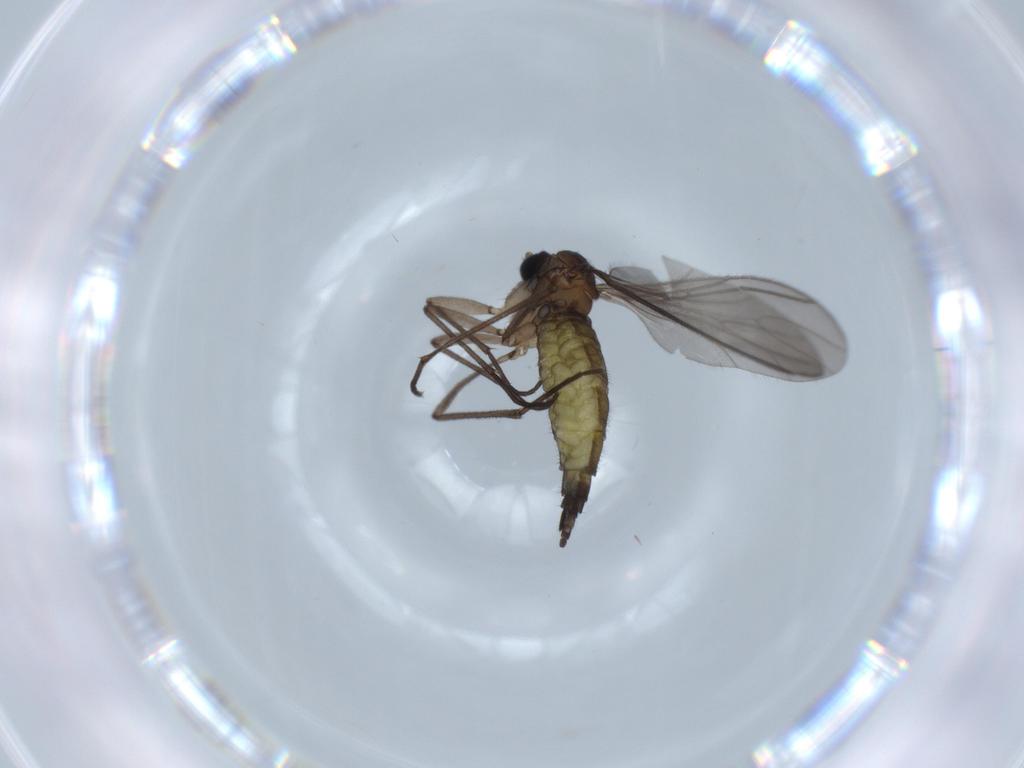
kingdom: Animalia
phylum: Arthropoda
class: Insecta
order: Diptera
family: Sciaridae
